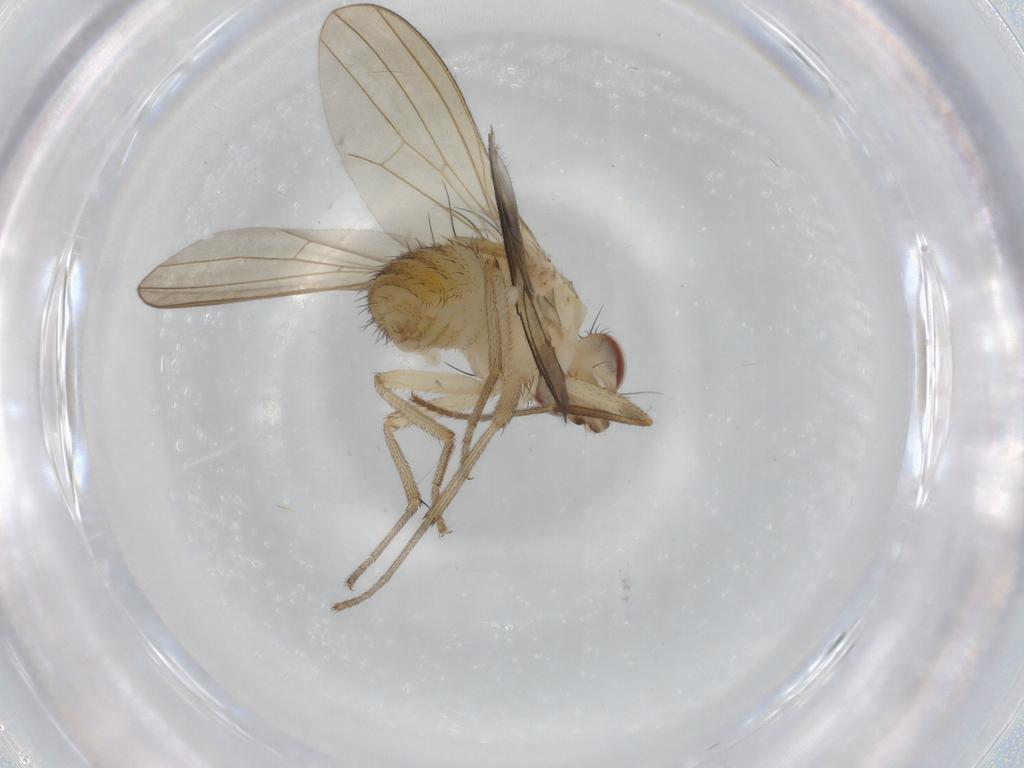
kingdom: Animalia
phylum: Arthropoda
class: Insecta
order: Diptera
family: Lauxaniidae
